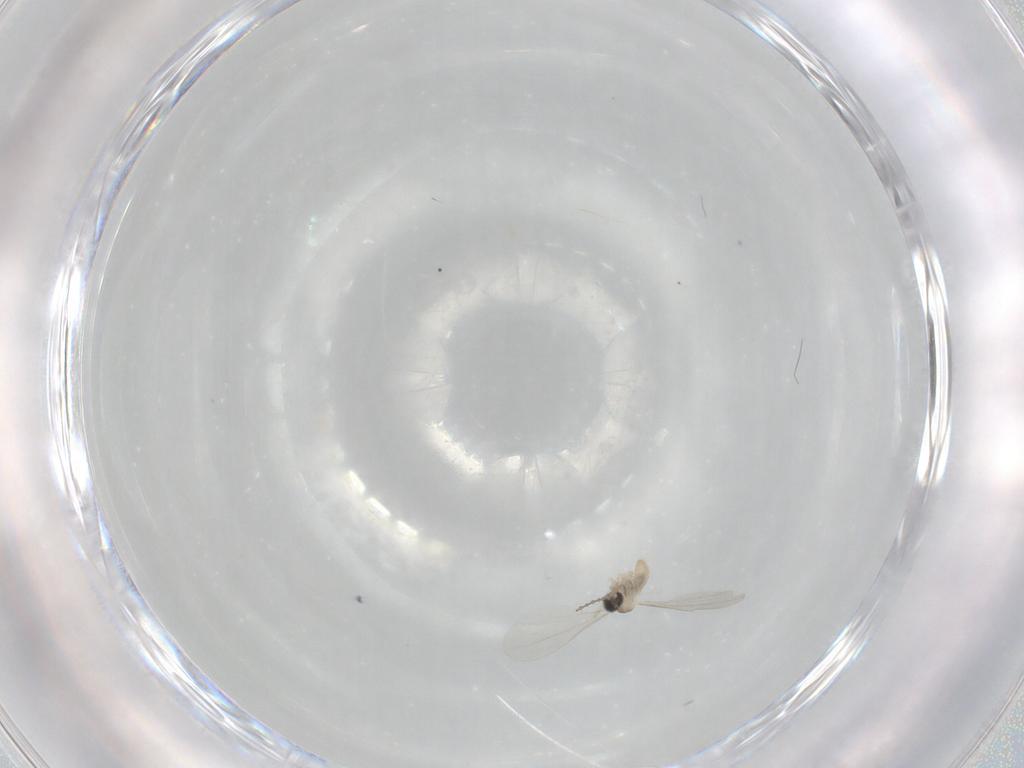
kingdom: Animalia
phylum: Arthropoda
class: Insecta
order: Diptera
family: Cecidomyiidae
